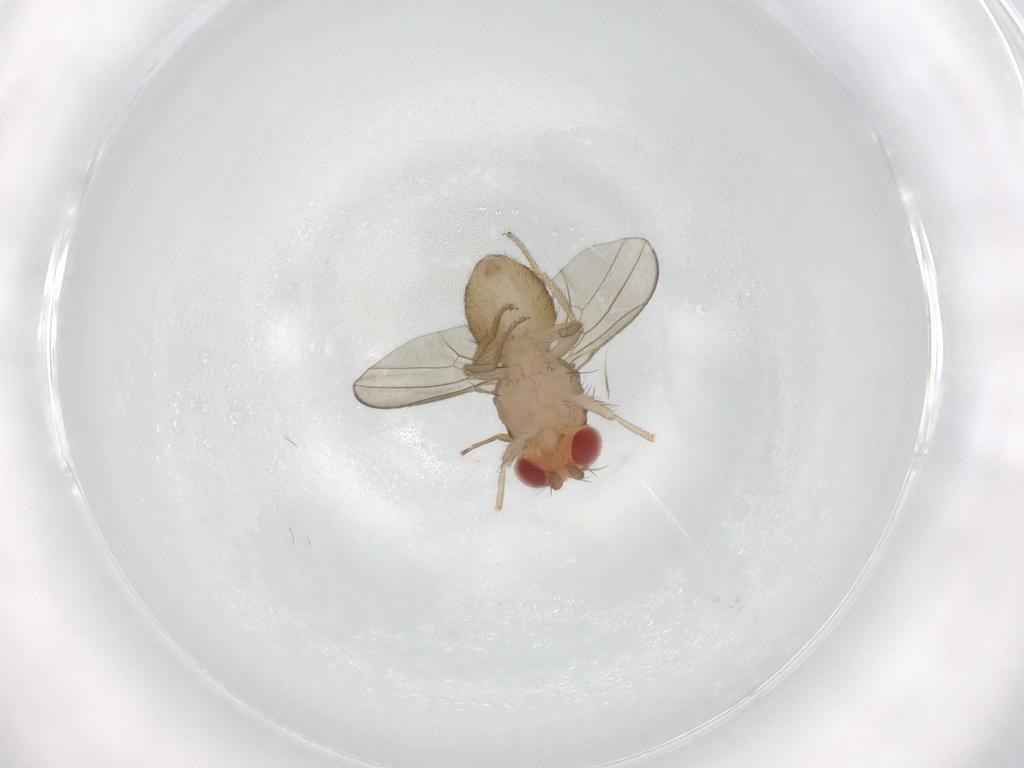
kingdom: Animalia
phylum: Arthropoda
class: Insecta
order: Diptera
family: Drosophilidae
